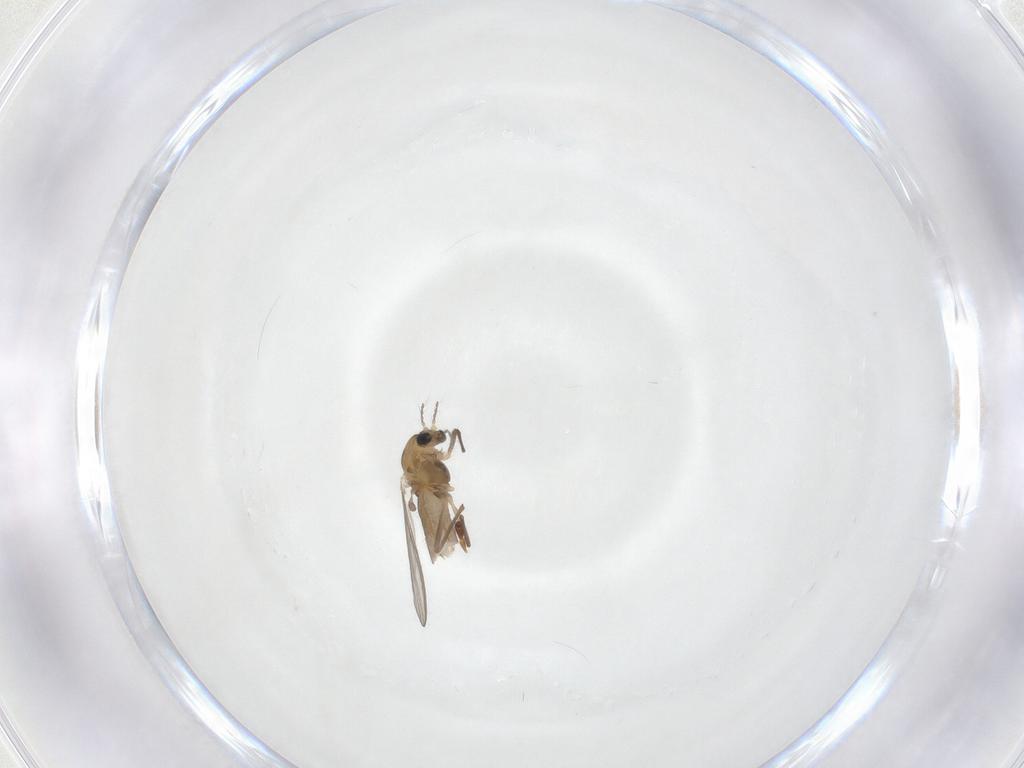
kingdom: Animalia
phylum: Arthropoda
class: Insecta
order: Diptera
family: Chironomidae
